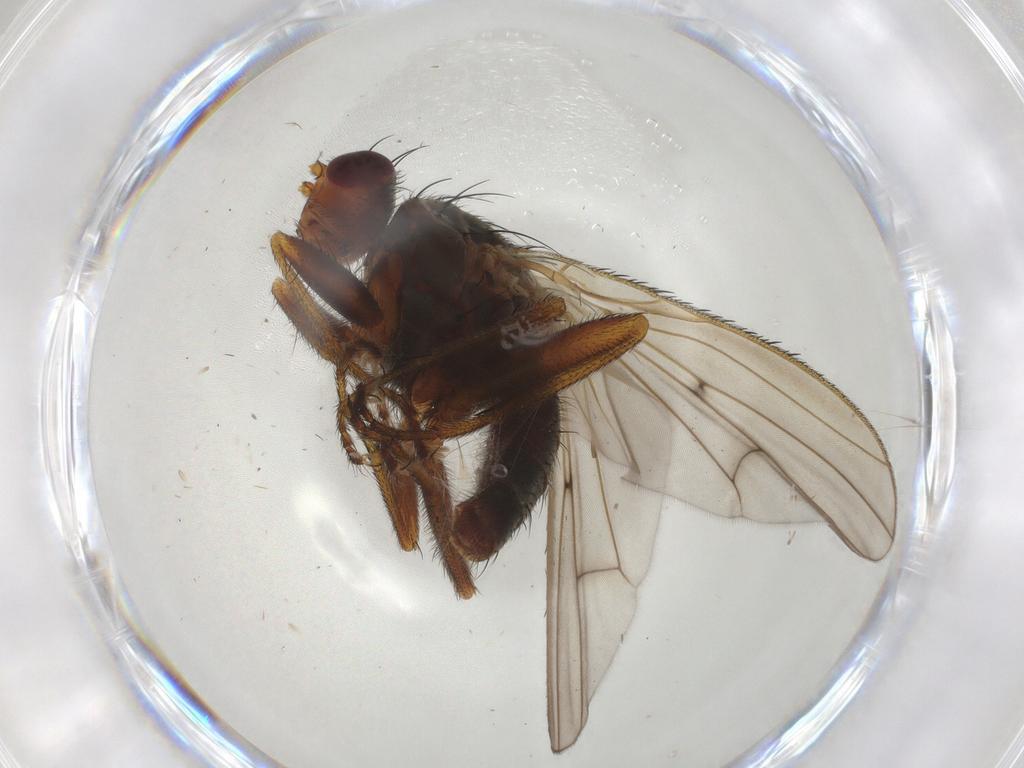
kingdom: Animalia
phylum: Arthropoda
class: Insecta
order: Diptera
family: Heleomyzidae
